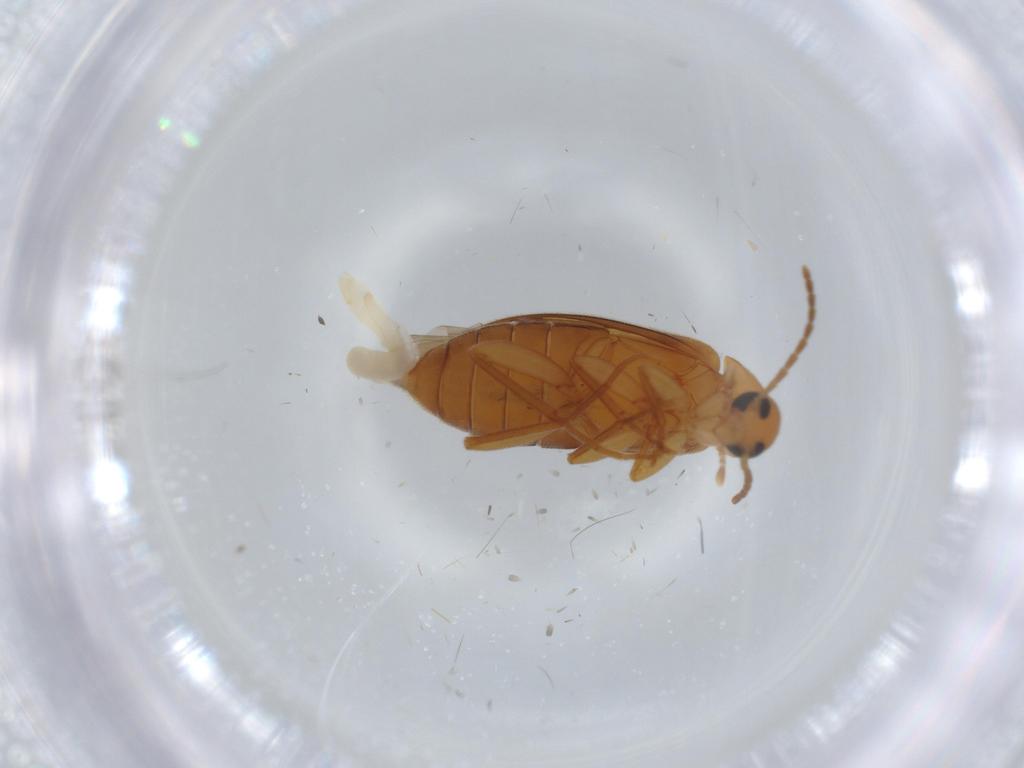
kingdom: Animalia
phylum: Arthropoda
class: Insecta
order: Coleoptera
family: Scraptiidae
